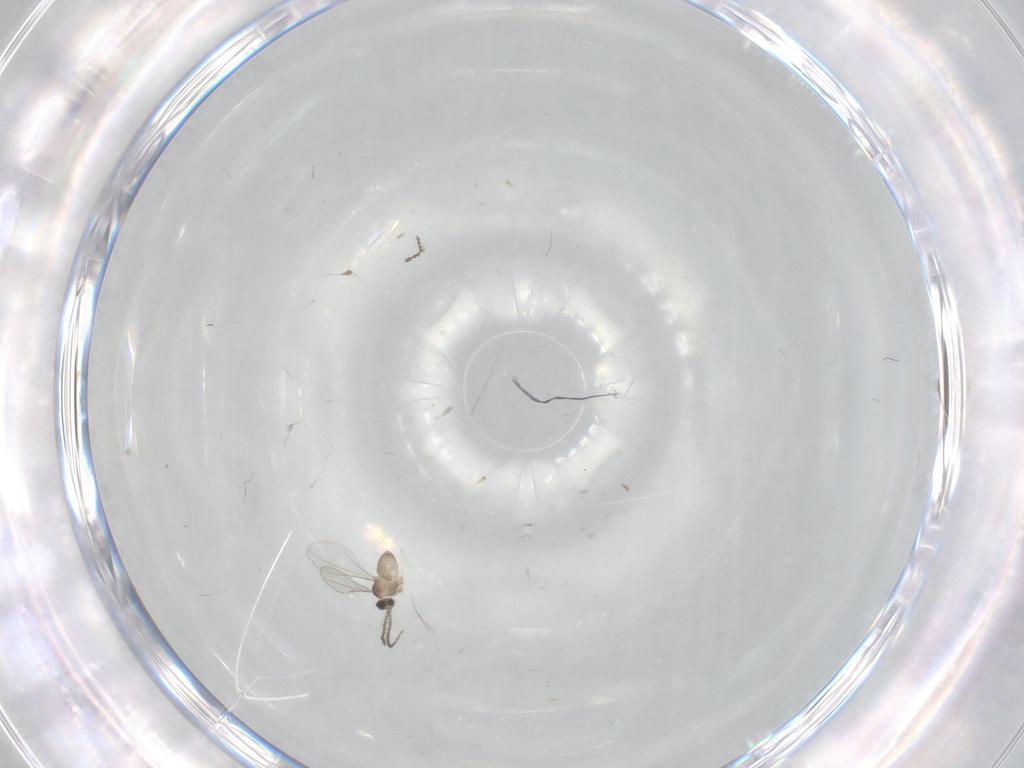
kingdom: Animalia
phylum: Arthropoda
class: Insecta
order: Diptera
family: Cecidomyiidae
